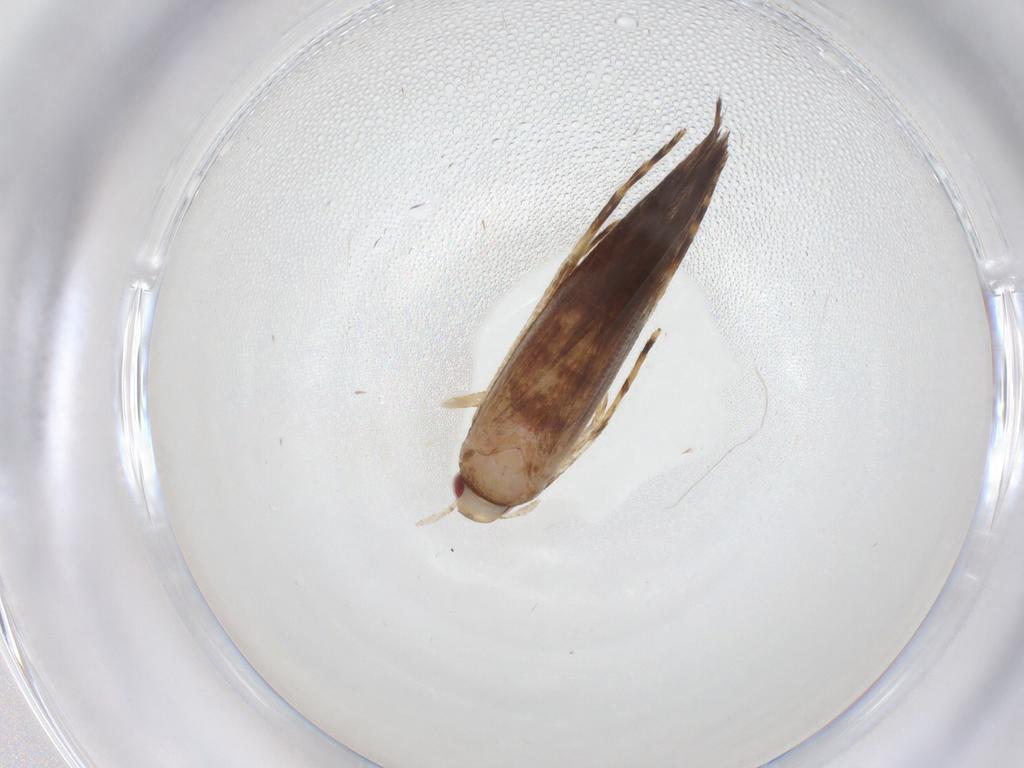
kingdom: Animalia
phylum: Arthropoda
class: Insecta
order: Lepidoptera
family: Cosmopterigidae
